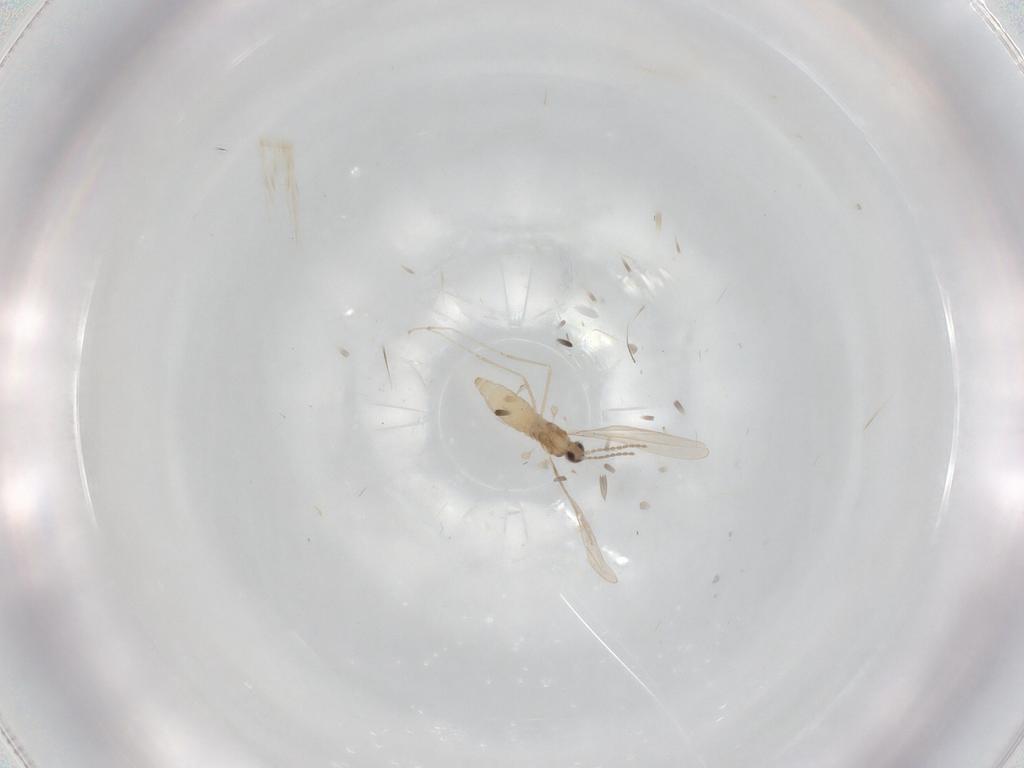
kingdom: Animalia
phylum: Arthropoda
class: Insecta
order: Diptera
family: Cecidomyiidae
